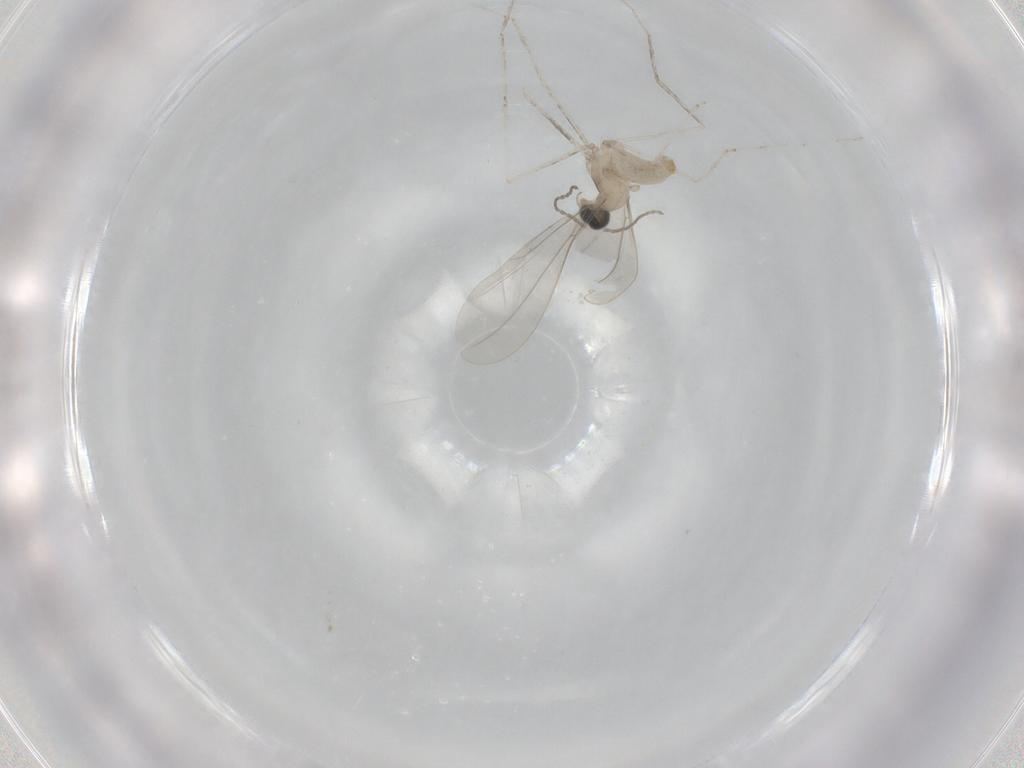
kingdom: Animalia
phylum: Arthropoda
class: Insecta
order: Diptera
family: Cecidomyiidae
